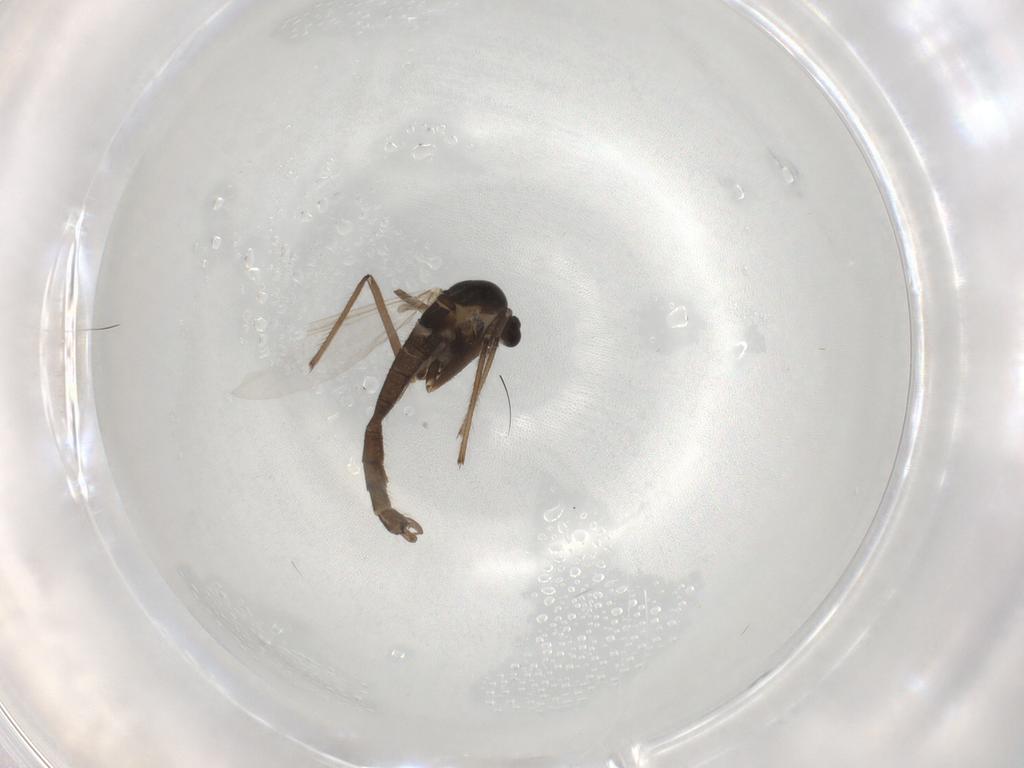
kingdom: Animalia
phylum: Arthropoda
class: Insecta
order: Diptera
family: Chironomidae
